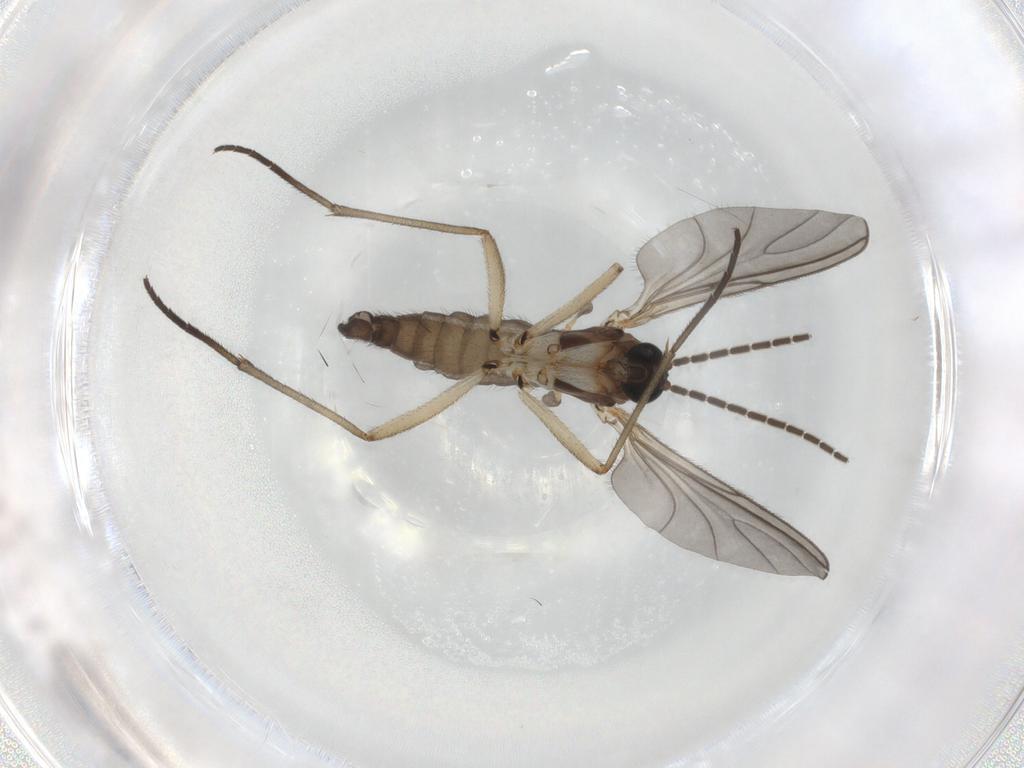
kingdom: Animalia
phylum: Arthropoda
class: Insecta
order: Diptera
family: Sciaridae
